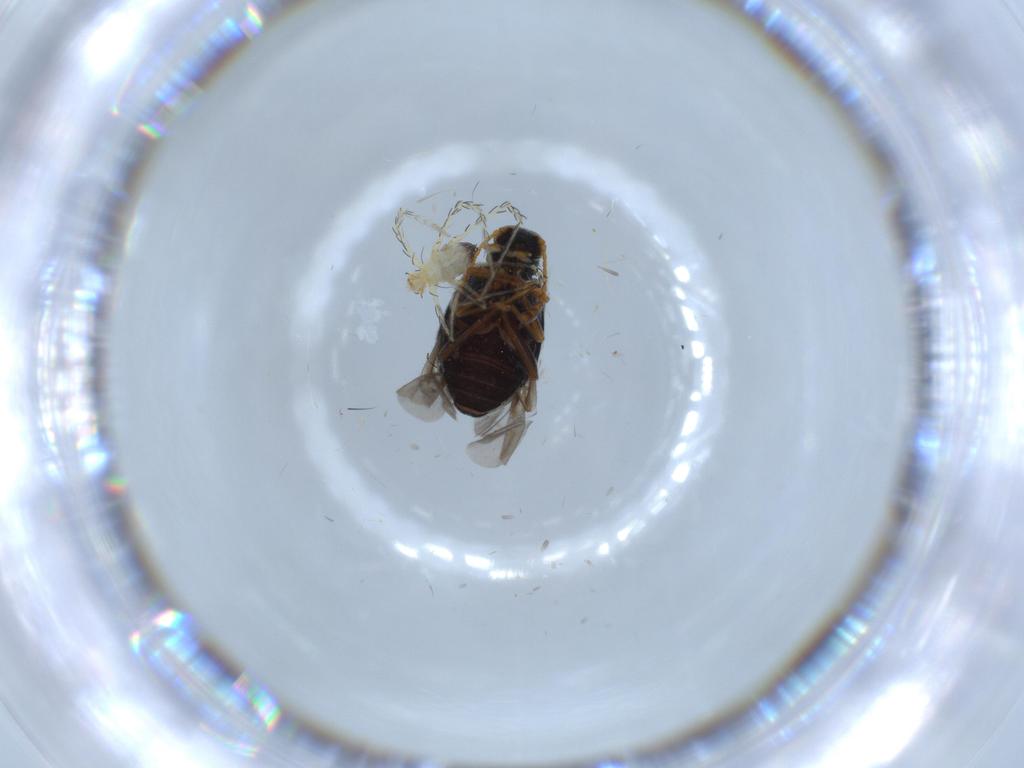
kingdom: Animalia
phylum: Arthropoda
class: Insecta
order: Coleoptera
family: Aderidae
